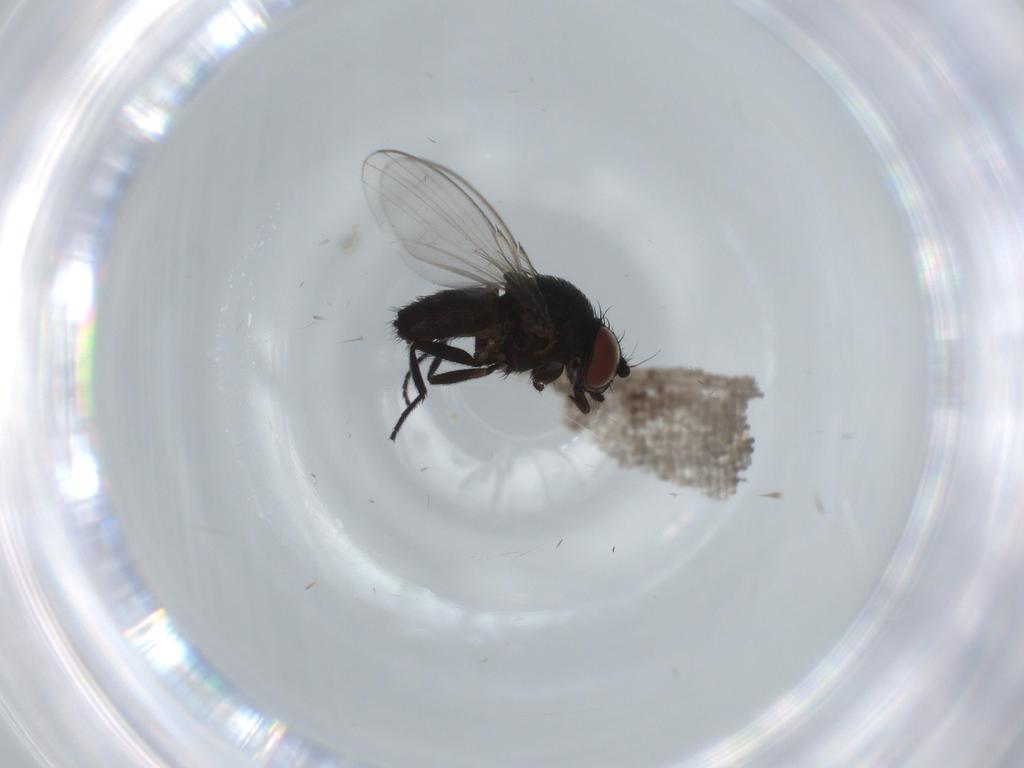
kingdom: Animalia
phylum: Arthropoda
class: Insecta
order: Diptera
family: Milichiidae
